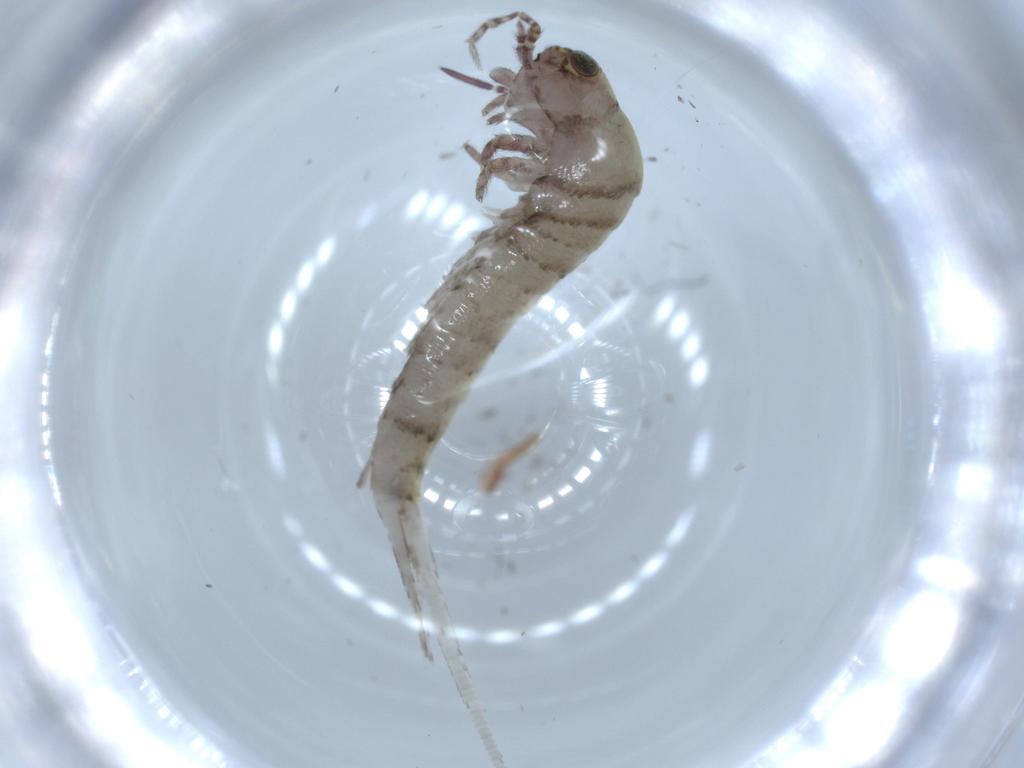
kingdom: Animalia
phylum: Arthropoda
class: Insecta
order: Archaeognatha
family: Machilidae
